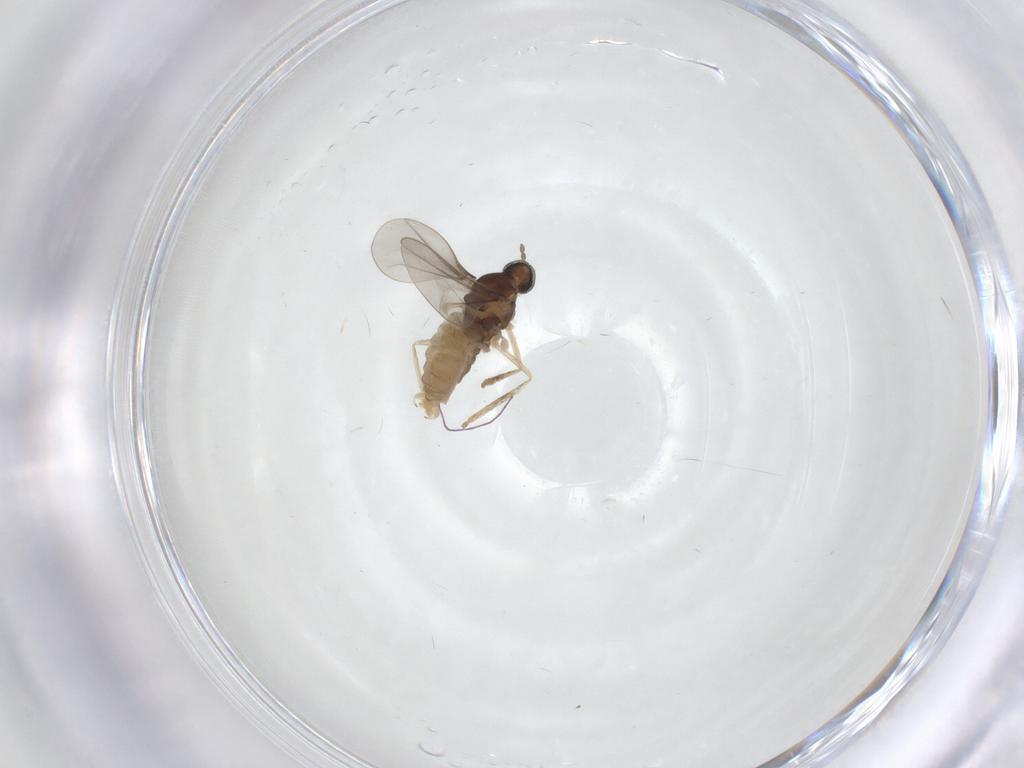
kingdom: Animalia
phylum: Arthropoda
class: Insecta
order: Diptera
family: Cecidomyiidae
